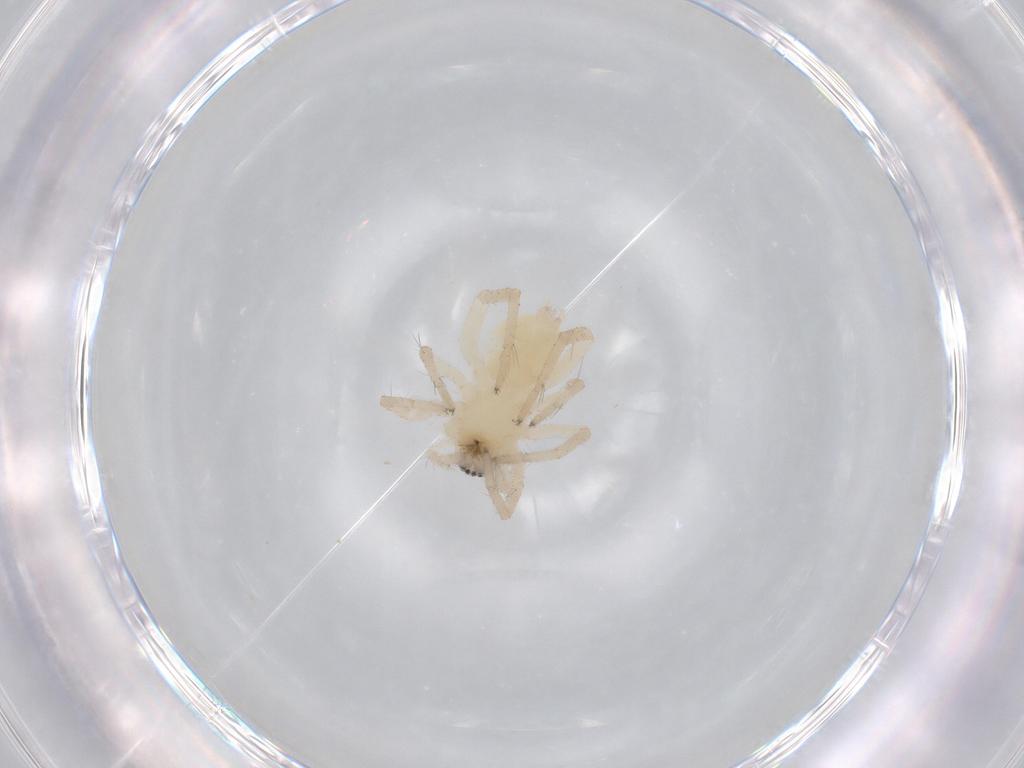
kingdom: Animalia
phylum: Arthropoda
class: Arachnida
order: Araneae
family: Anyphaenidae
